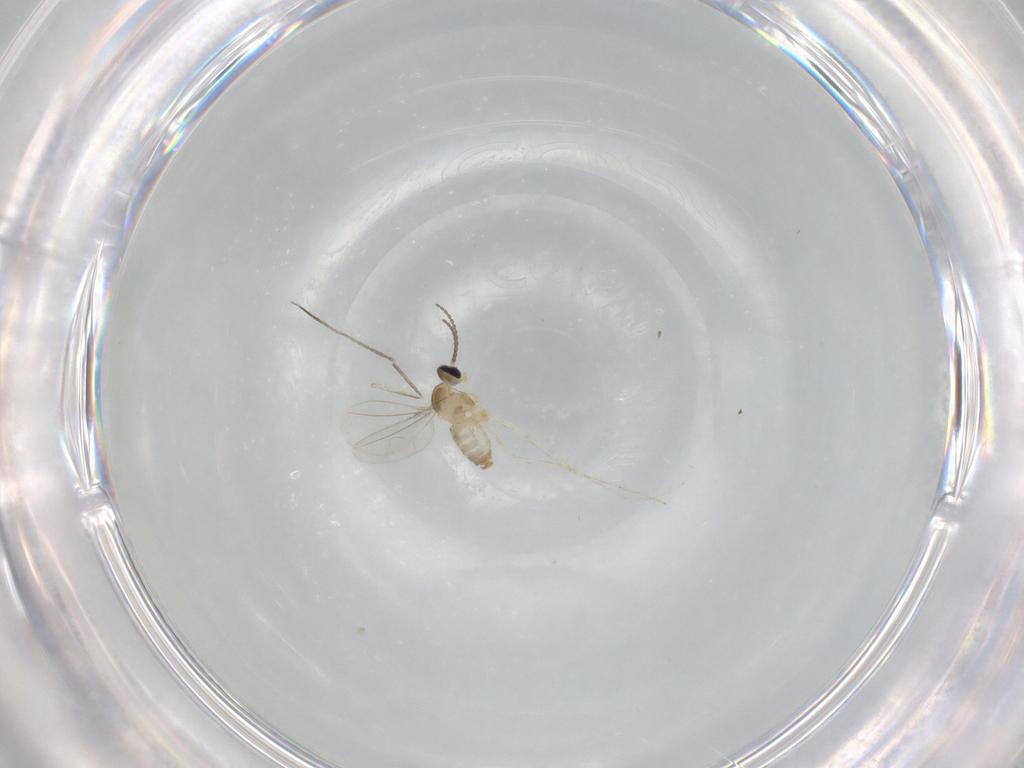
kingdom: Animalia
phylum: Arthropoda
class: Insecta
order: Diptera
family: Cecidomyiidae
